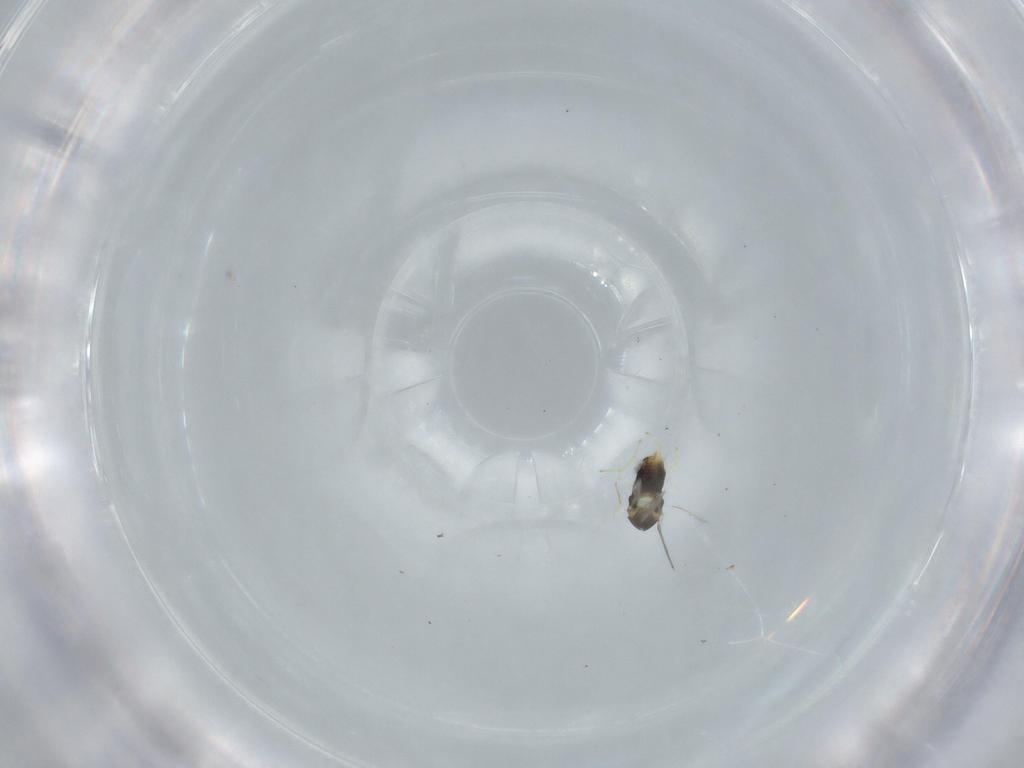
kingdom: Animalia
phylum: Arthropoda
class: Insecta
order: Hymenoptera
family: Aphelinidae
